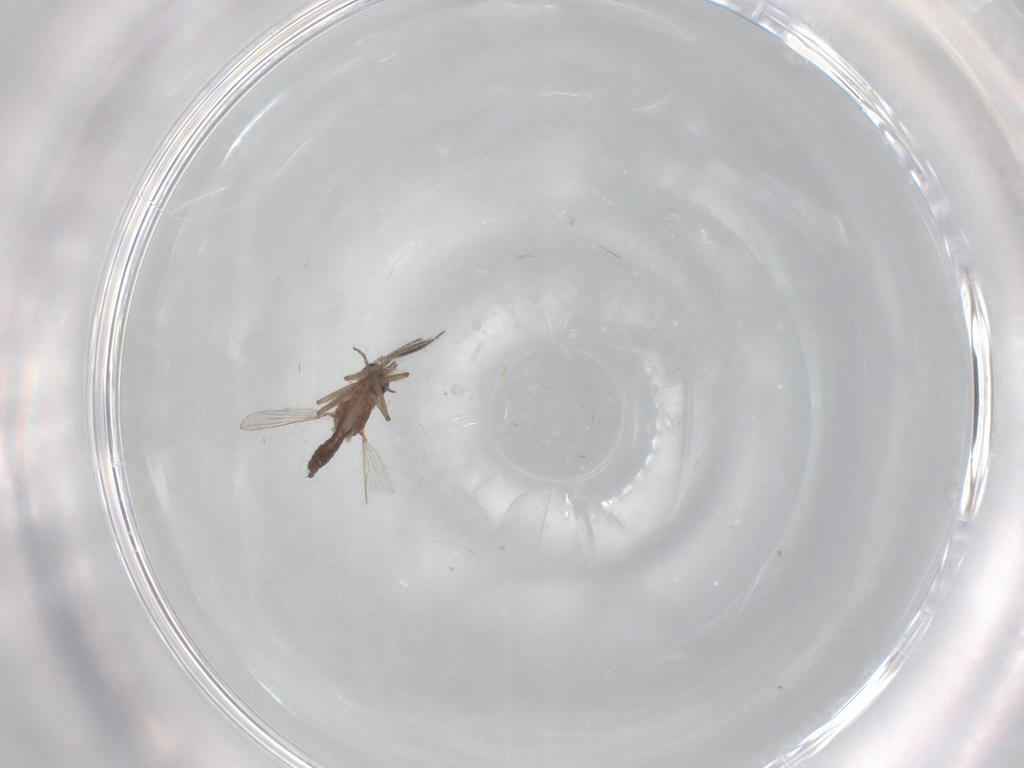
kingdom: Animalia
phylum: Arthropoda
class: Insecta
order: Diptera
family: Ceratopogonidae
